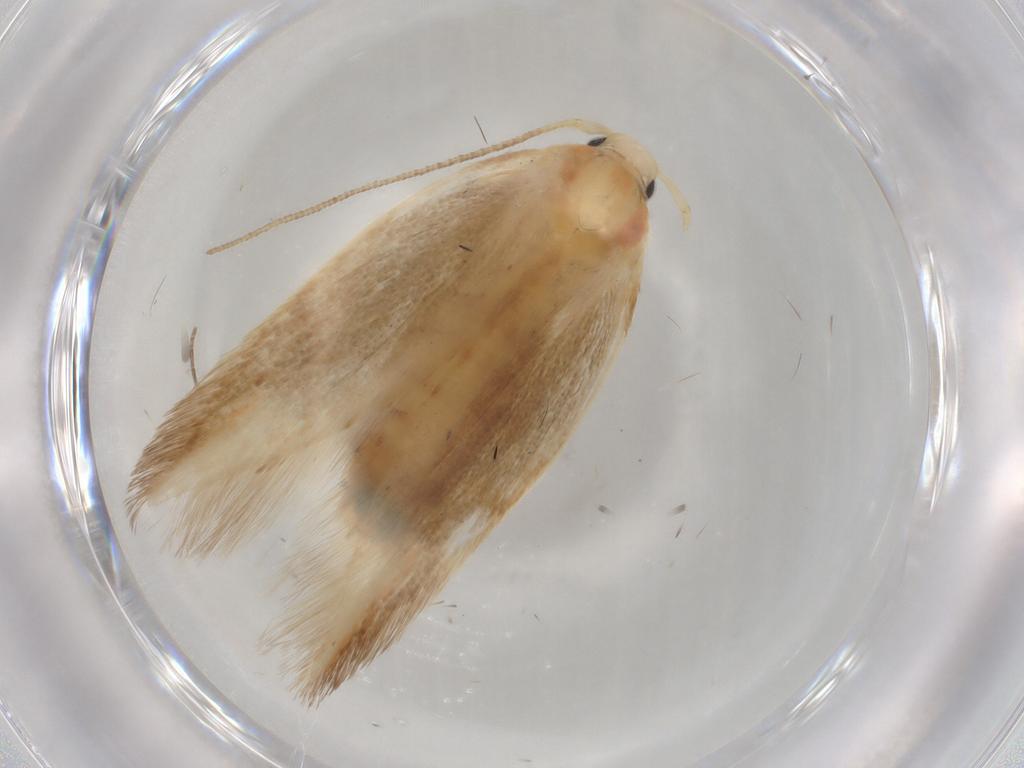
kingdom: Animalia
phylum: Arthropoda
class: Insecta
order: Lepidoptera
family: Geometridae
